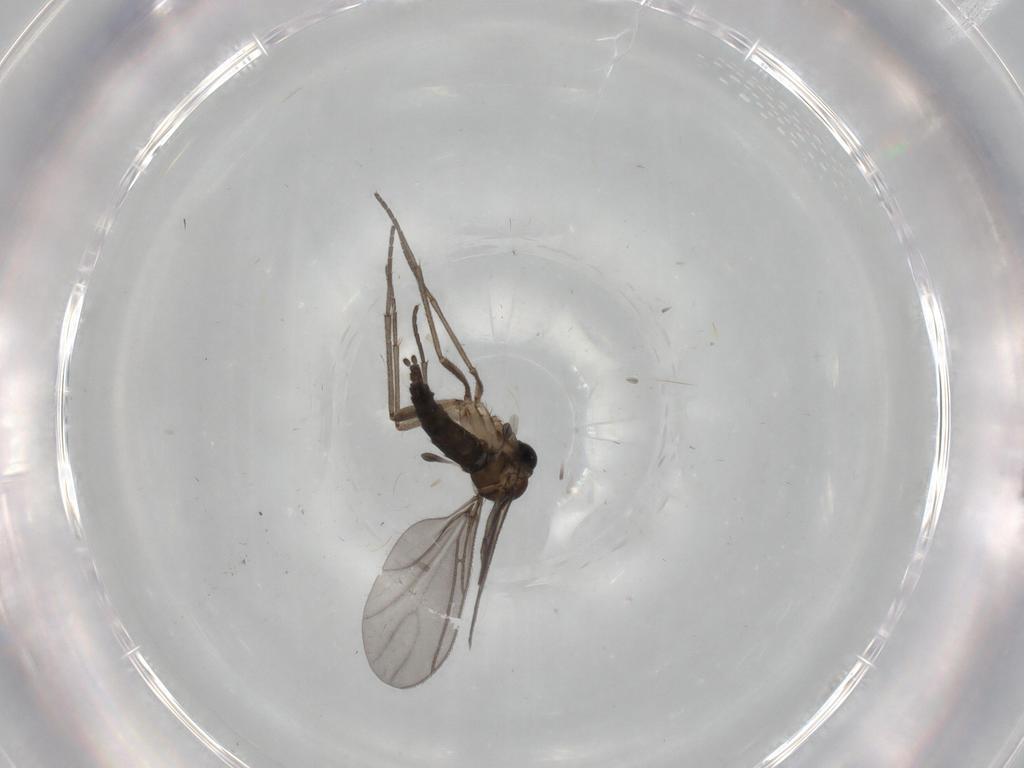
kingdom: Animalia
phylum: Arthropoda
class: Insecta
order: Diptera
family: Sciaridae
